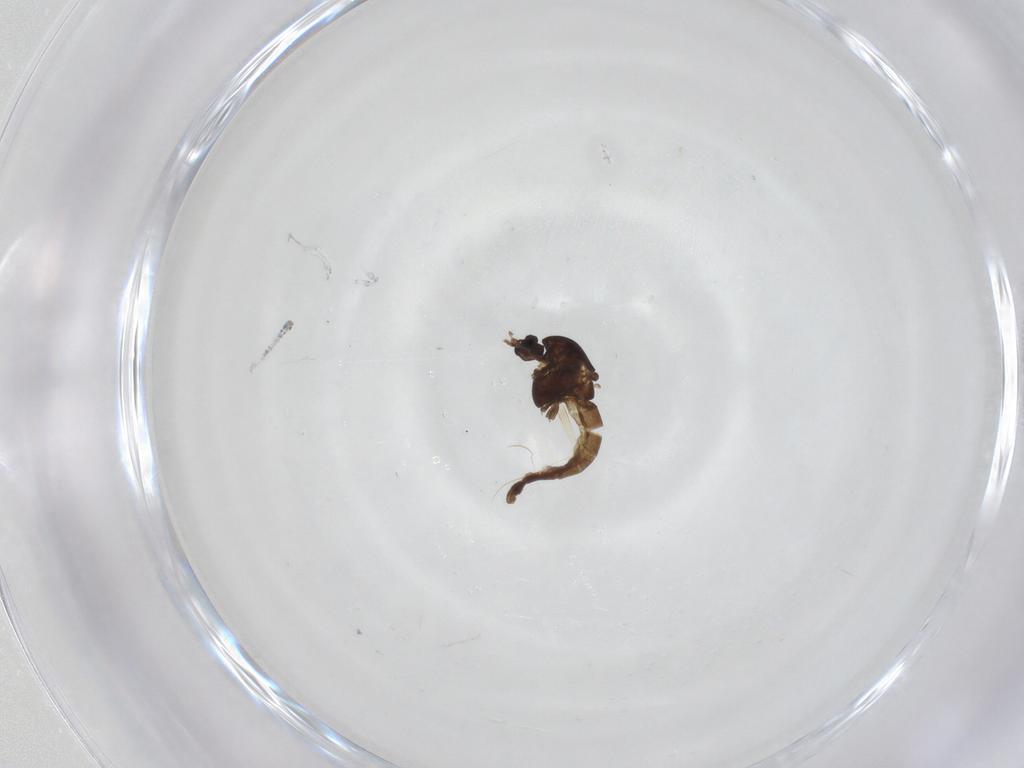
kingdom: Animalia
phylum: Arthropoda
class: Insecta
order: Diptera
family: Chironomidae
